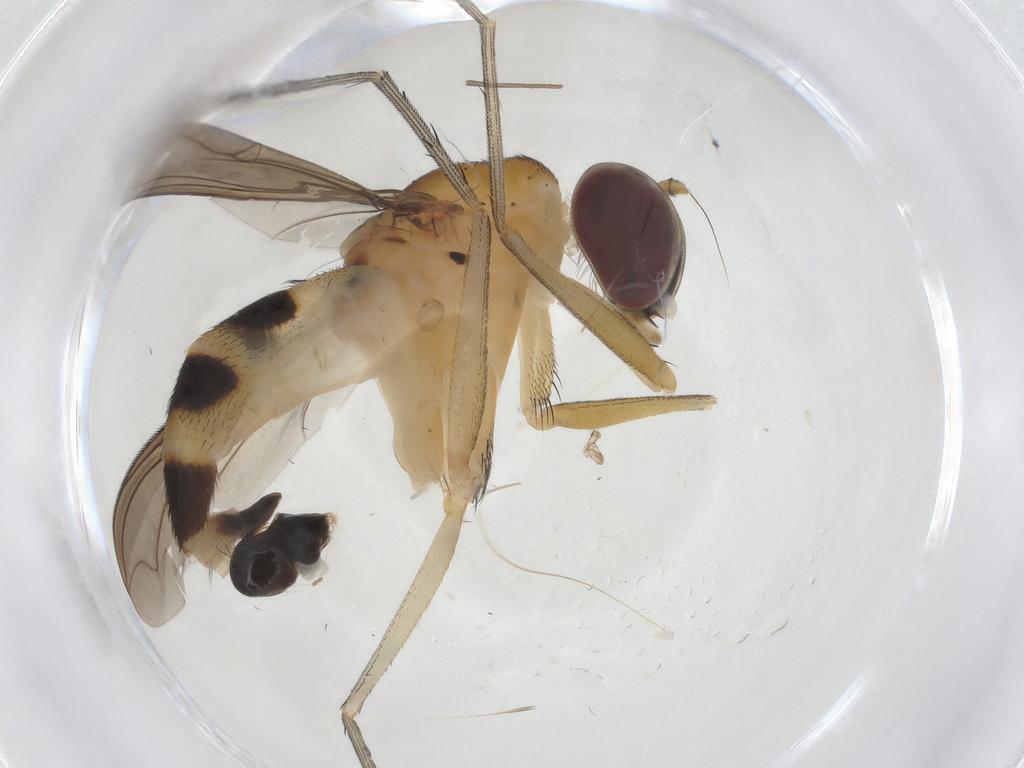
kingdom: Animalia
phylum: Arthropoda
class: Insecta
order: Diptera
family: Dolichopodidae
